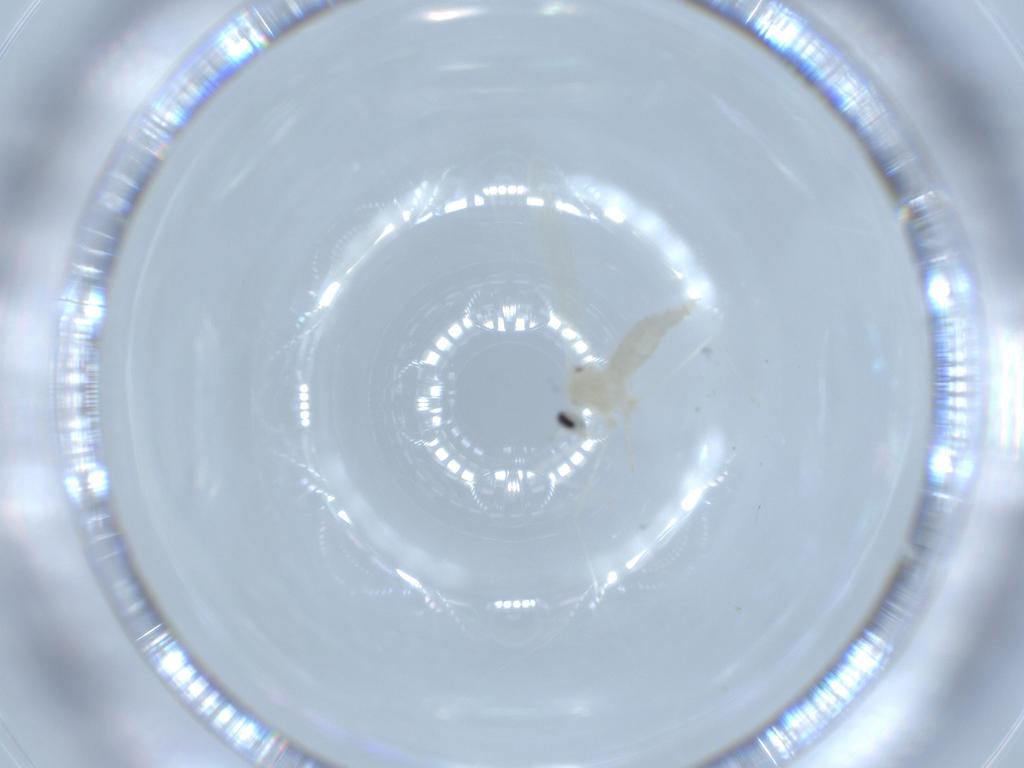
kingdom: Animalia
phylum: Arthropoda
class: Insecta
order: Diptera
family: Cecidomyiidae
